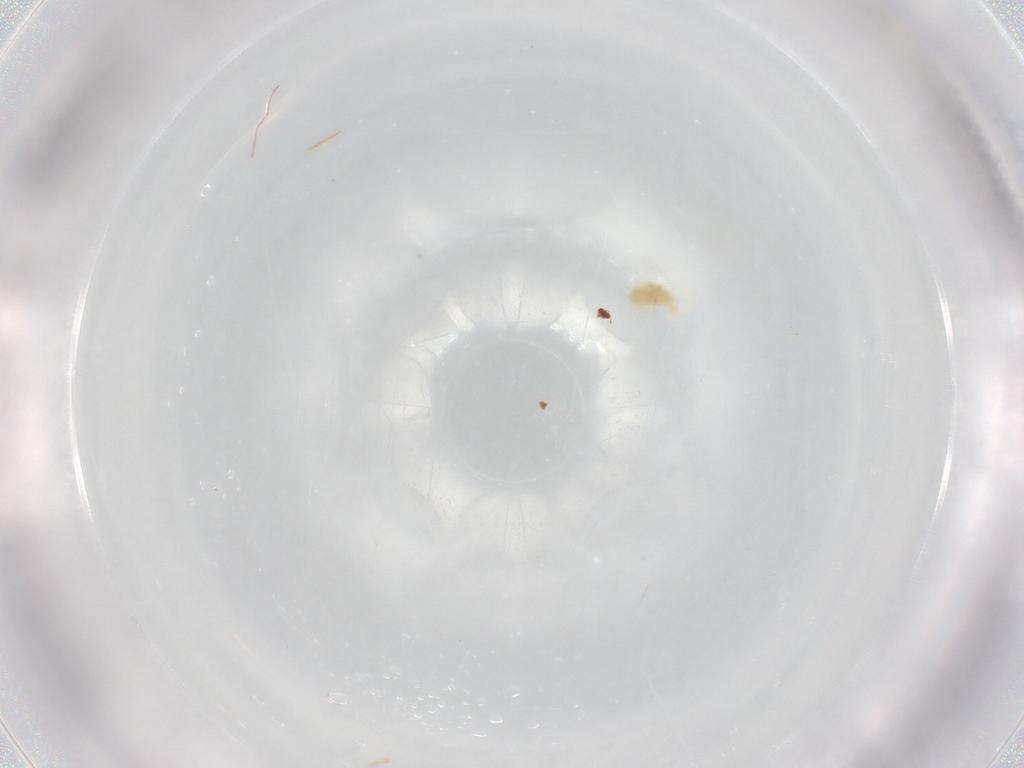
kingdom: Animalia
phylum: Arthropoda
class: Arachnida
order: Trombidiformes
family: Eupodidae
